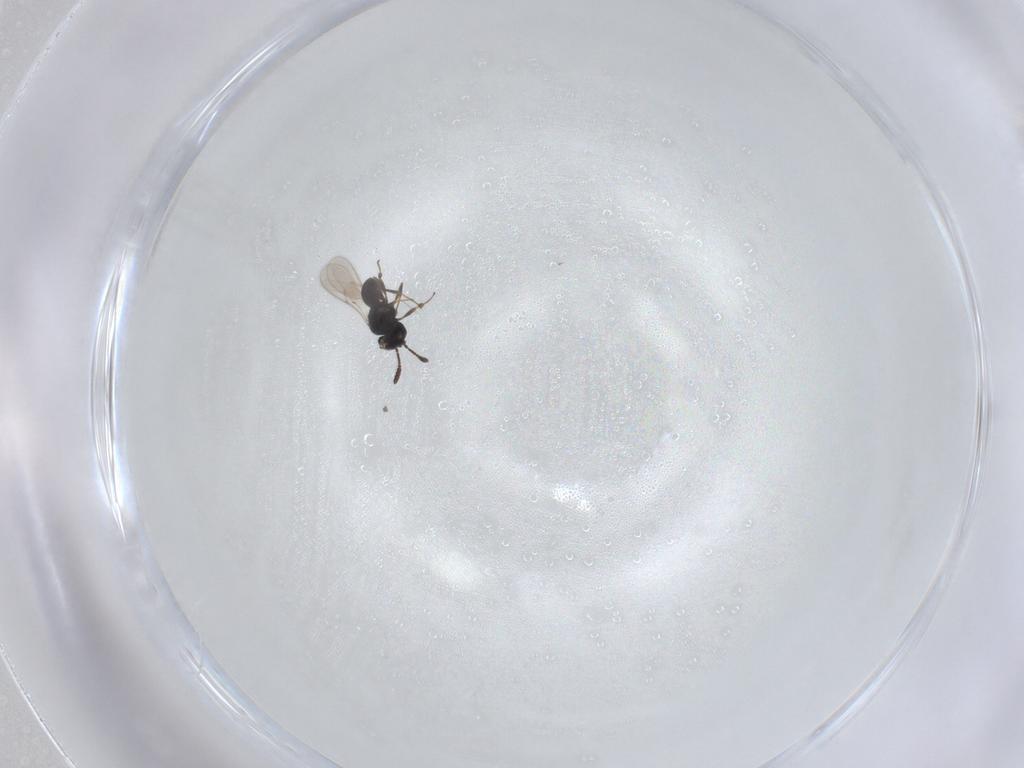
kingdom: Animalia
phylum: Arthropoda
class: Insecta
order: Hymenoptera
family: Scelionidae
